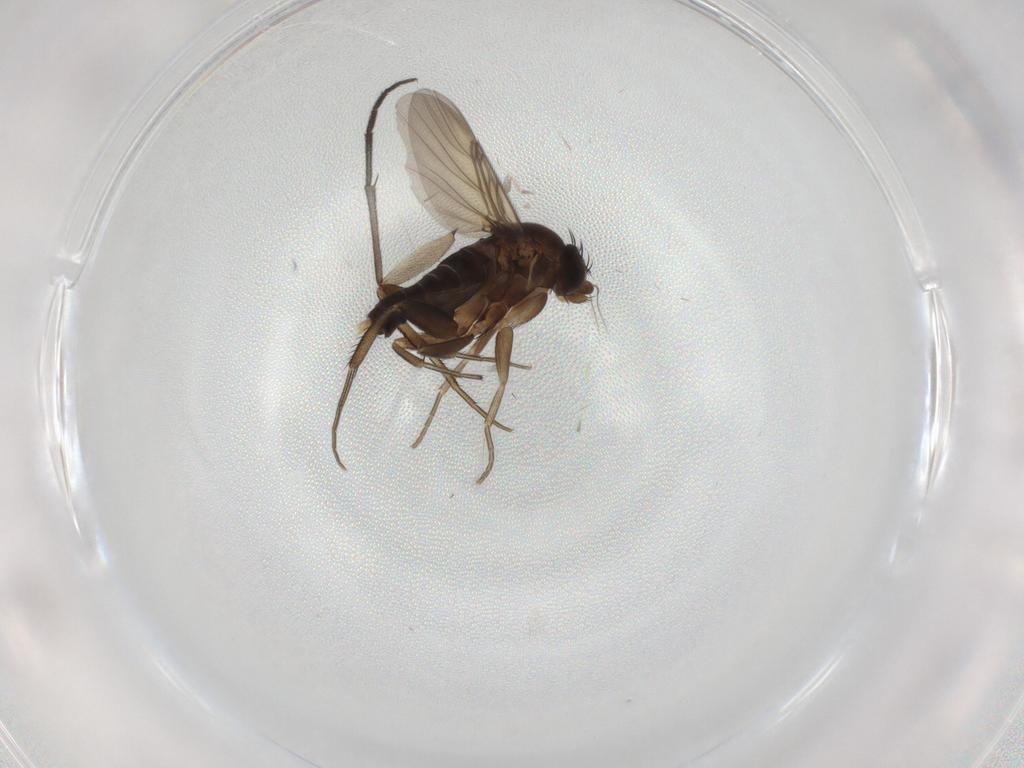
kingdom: Animalia
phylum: Arthropoda
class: Insecta
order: Diptera
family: Phoridae
